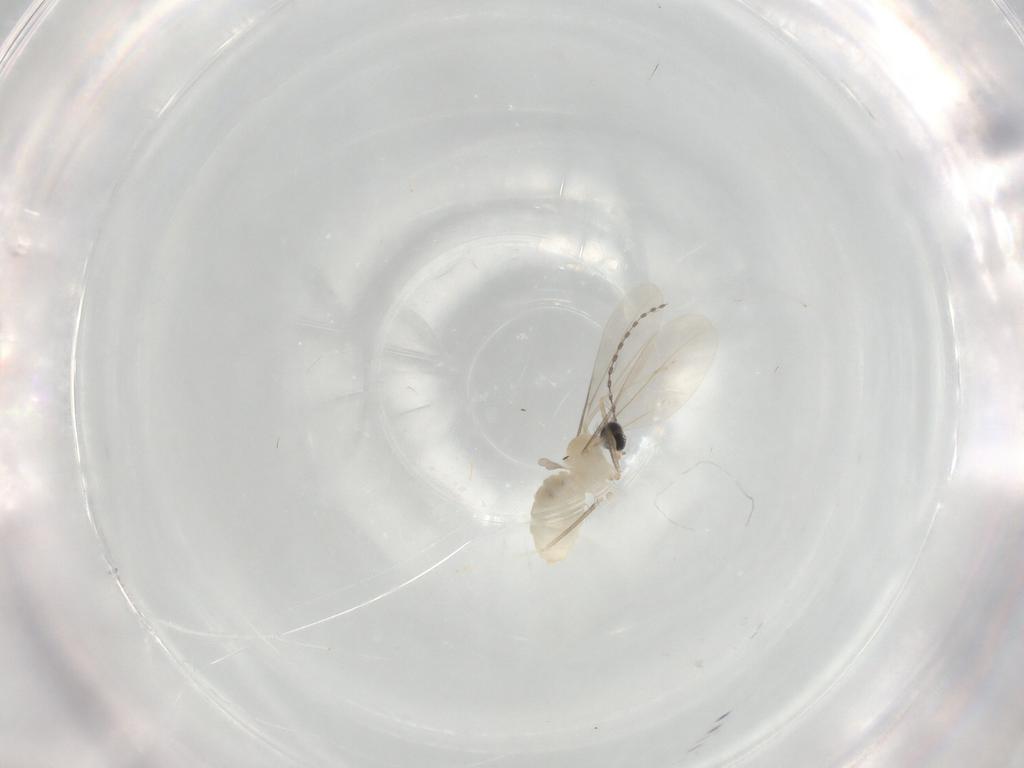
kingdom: Animalia
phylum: Arthropoda
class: Insecta
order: Diptera
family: Cecidomyiidae
